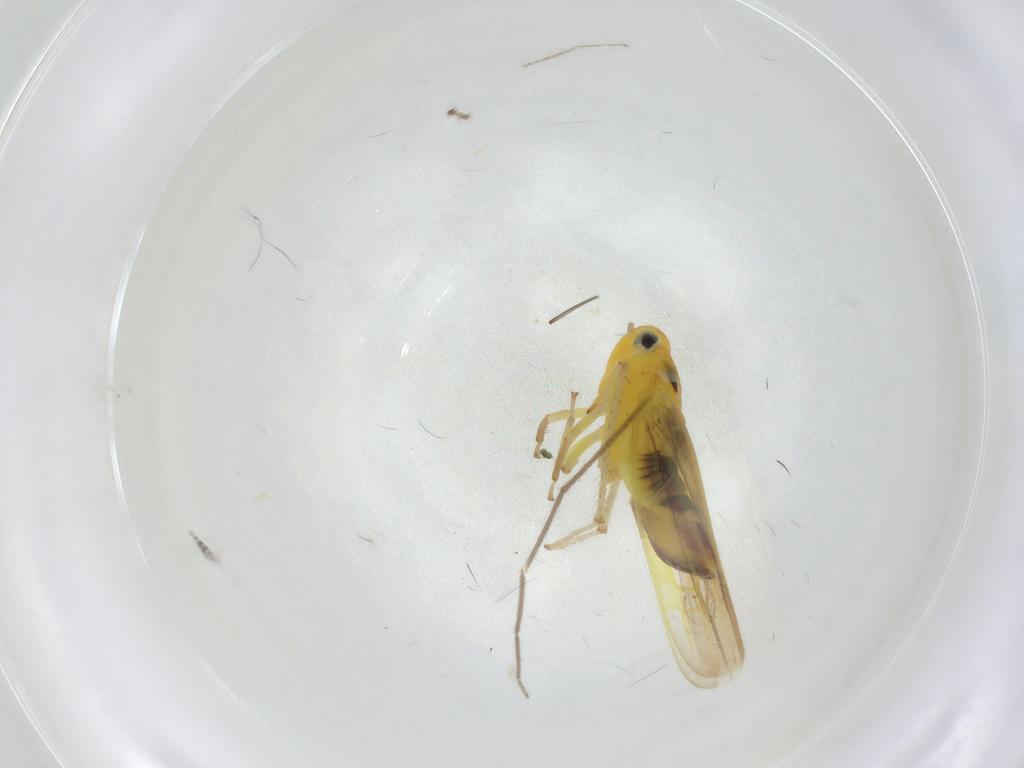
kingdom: Animalia
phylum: Arthropoda
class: Insecta
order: Hemiptera
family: Cicadellidae
